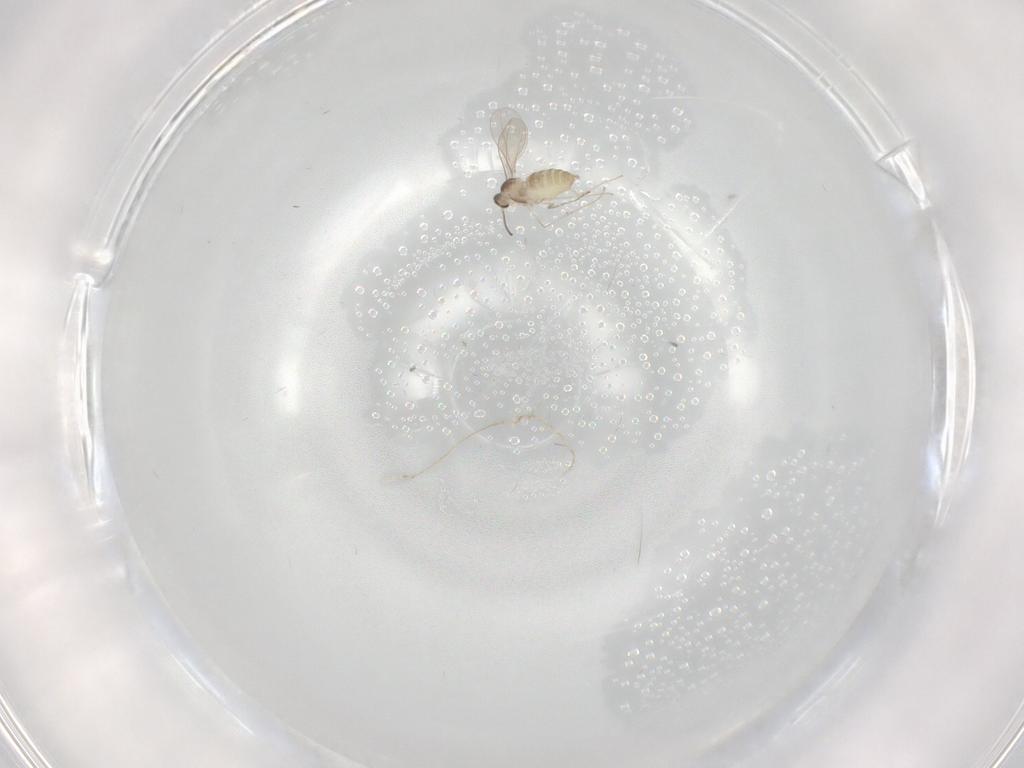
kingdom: Animalia
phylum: Arthropoda
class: Insecta
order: Diptera
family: Cecidomyiidae
